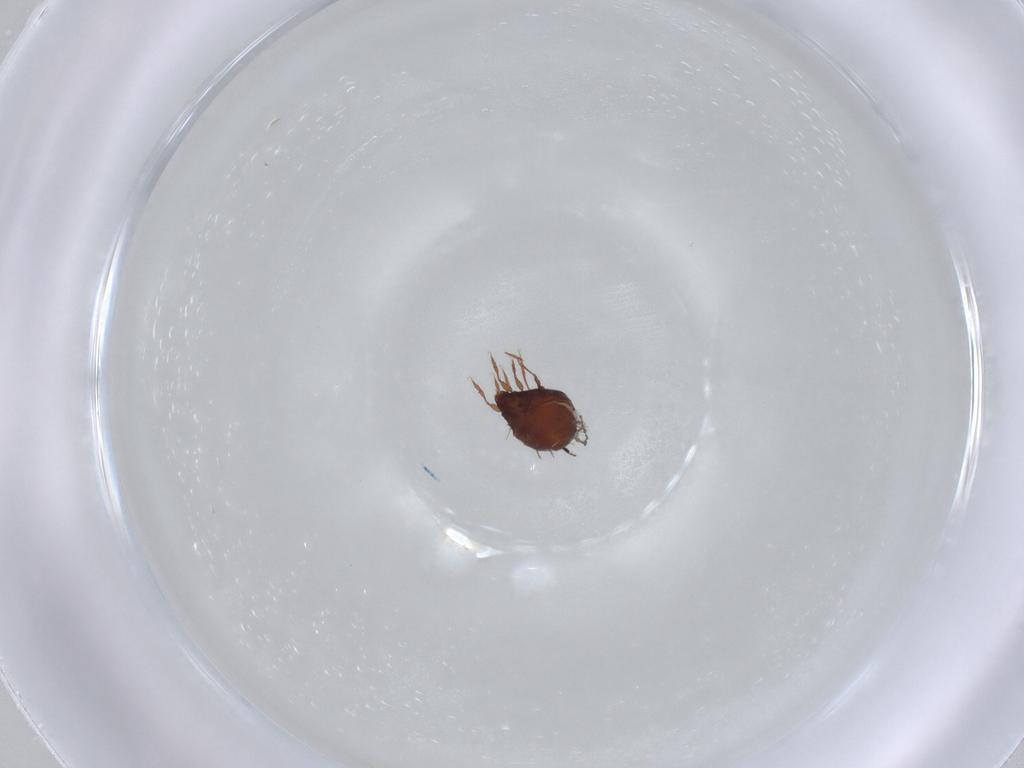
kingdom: Animalia
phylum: Arthropoda
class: Arachnida
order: Sarcoptiformes
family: Caloppiidae
